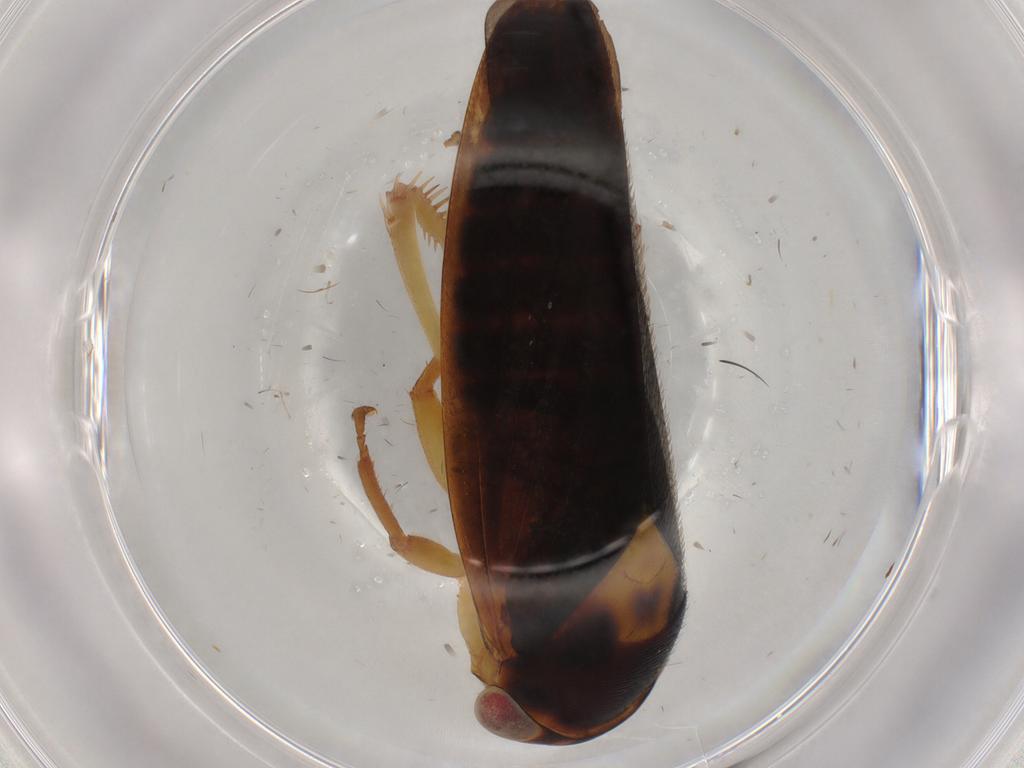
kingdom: Animalia
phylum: Arthropoda
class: Insecta
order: Hemiptera
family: Cicadellidae
